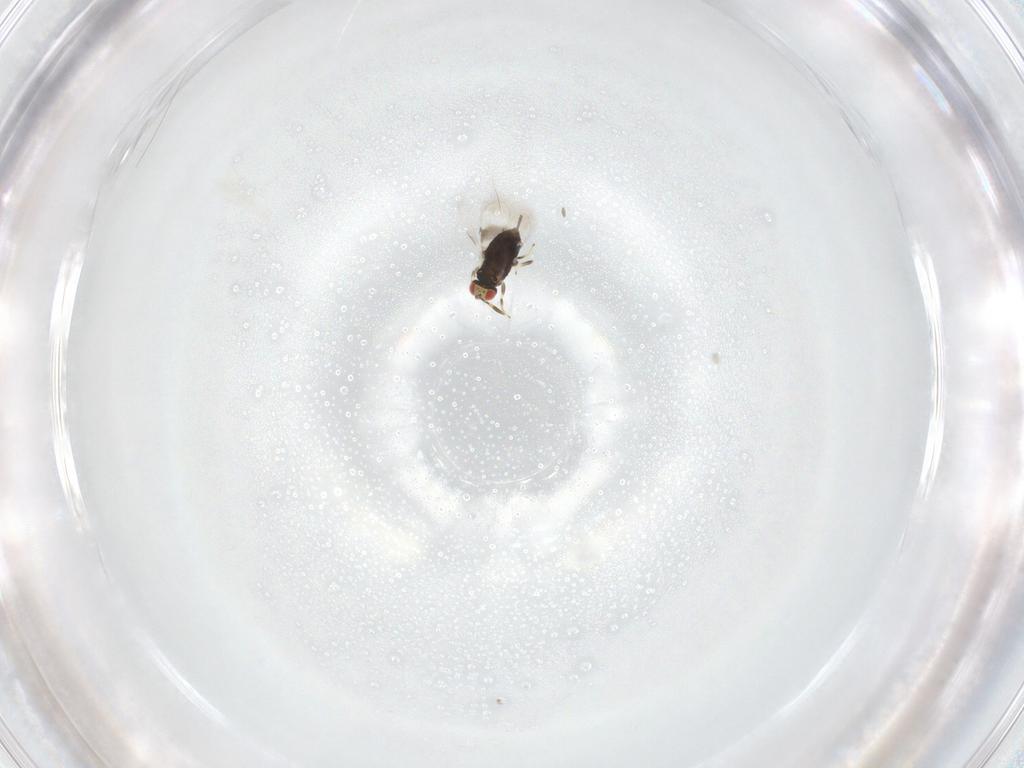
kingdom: Animalia
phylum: Arthropoda
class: Insecta
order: Hymenoptera
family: Azotidae
